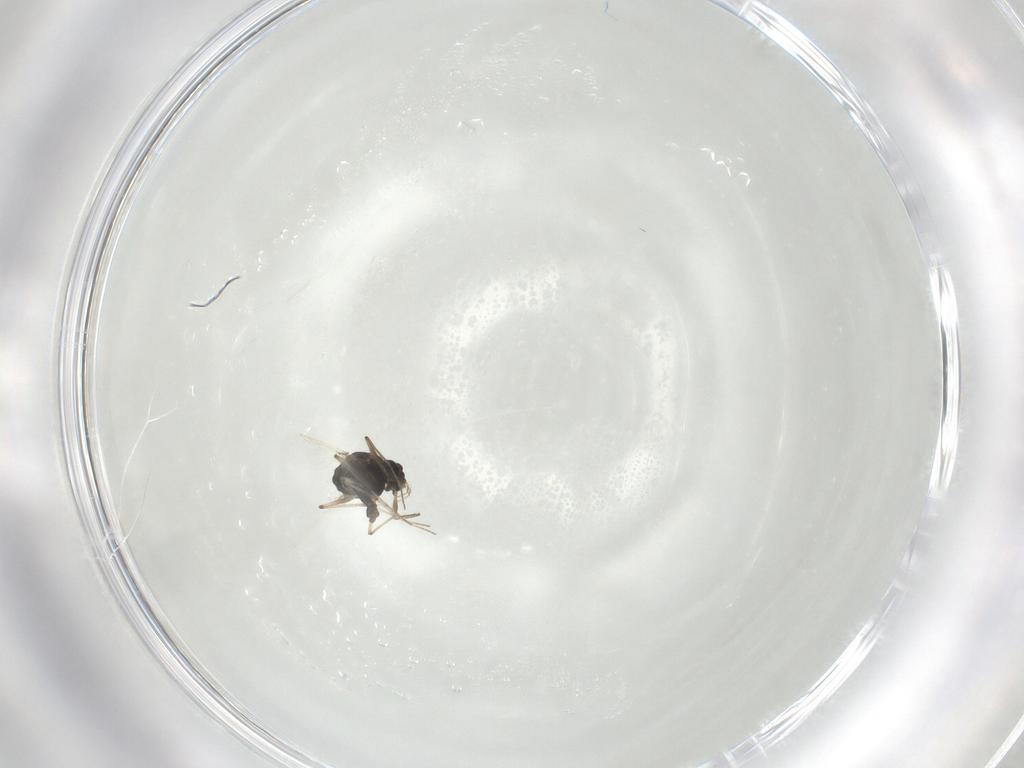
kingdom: Animalia
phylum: Arthropoda
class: Insecta
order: Diptera
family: Chironomidae
